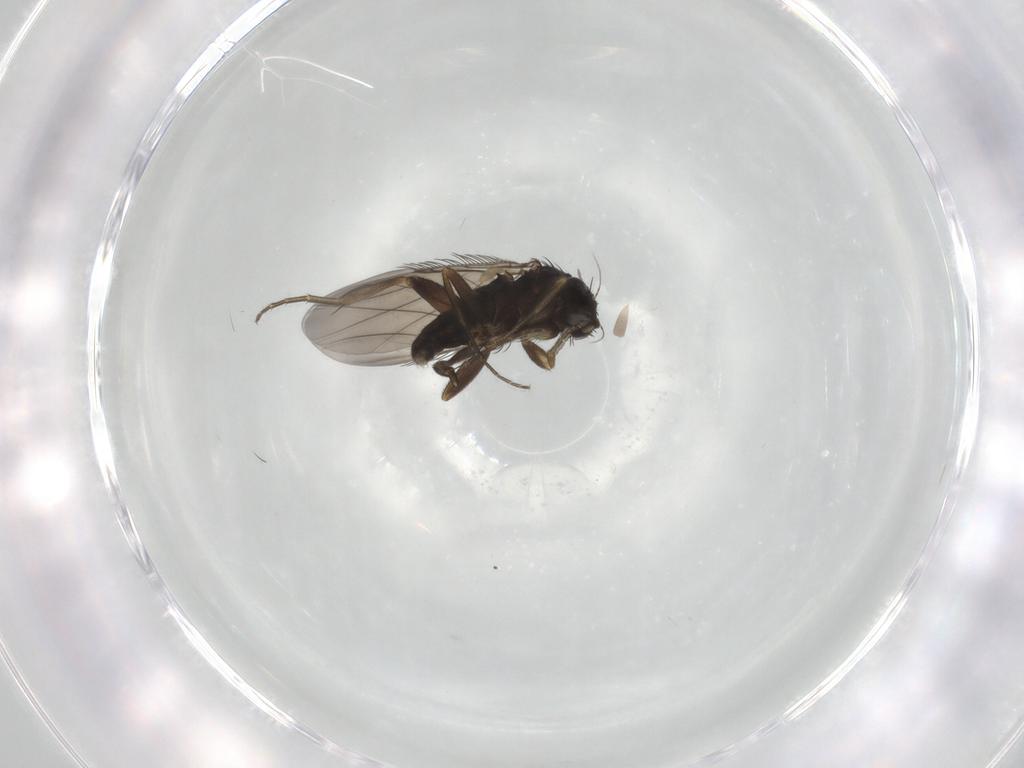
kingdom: Animalia
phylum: Arthropoda
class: Insecta
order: Diptera
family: Phoridae
